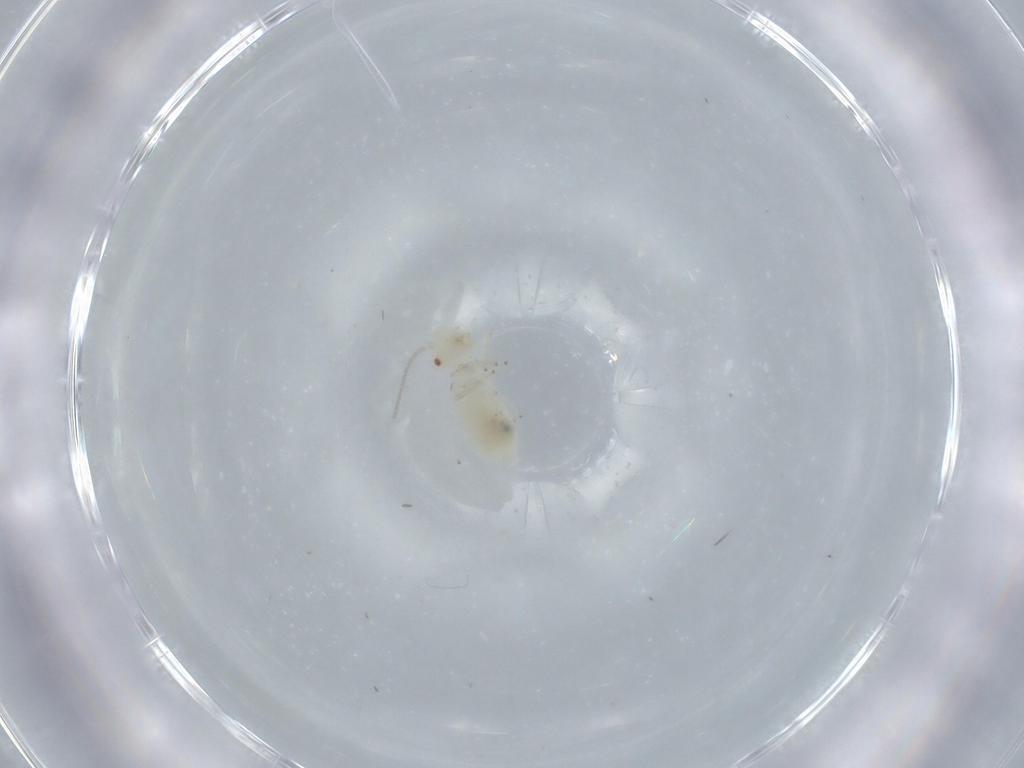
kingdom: Animalia
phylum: Arthropoda
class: Insecta
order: Psocodea
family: Caeciliusidae
